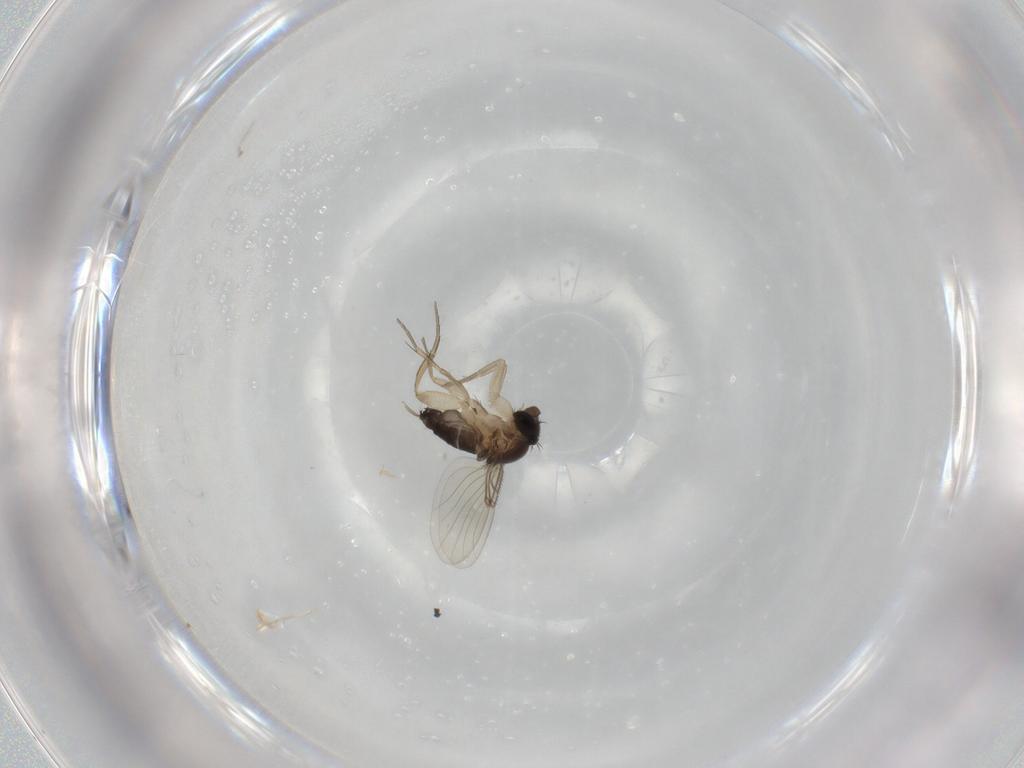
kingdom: Animalia
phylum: Arthropoda
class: Insecta
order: Diptera
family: Phoridae
